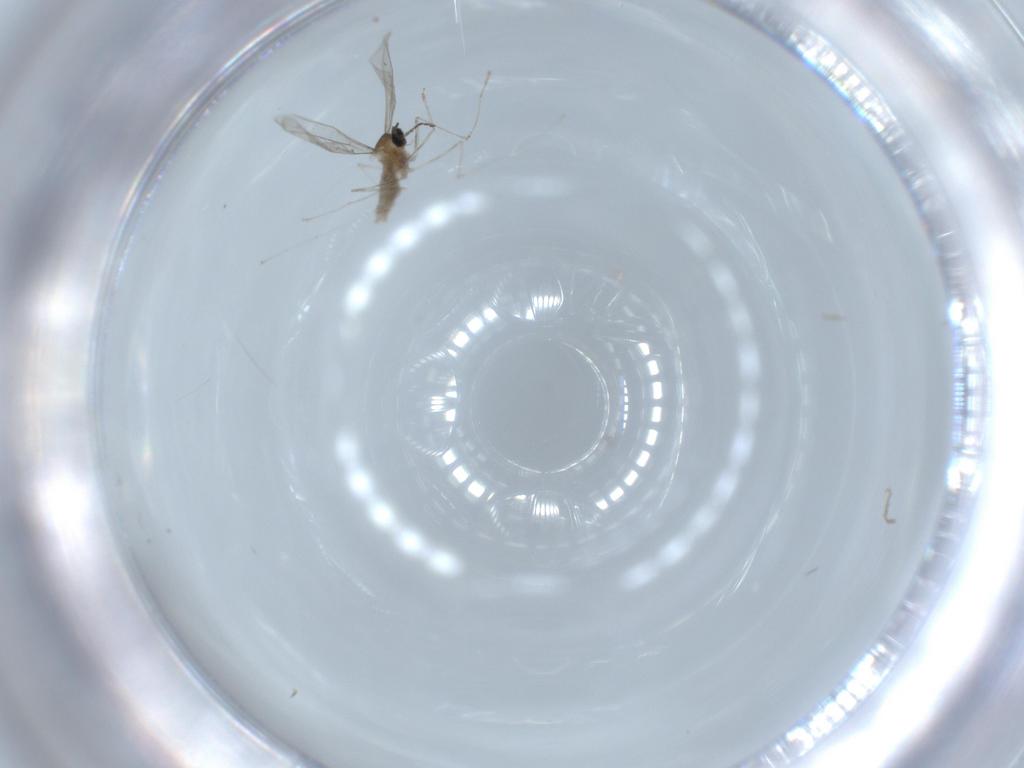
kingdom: Animalia
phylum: Arthropoda
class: Insecta
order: Diptera
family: Cecidomyiidae
